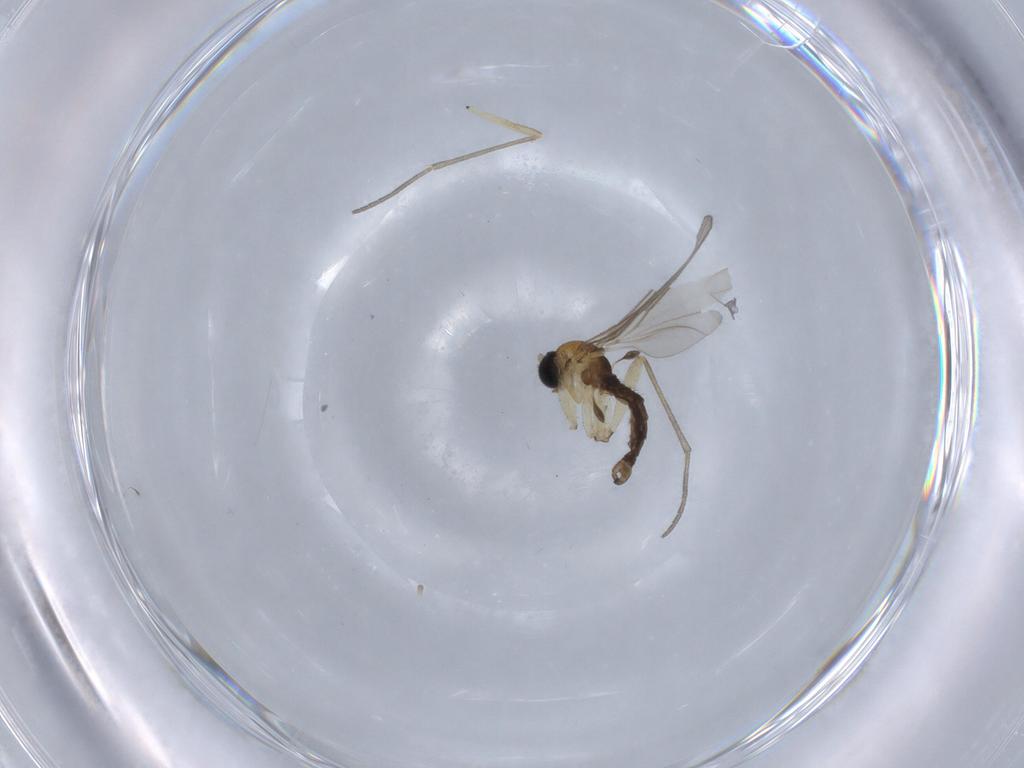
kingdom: Animalia
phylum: Arthropoda
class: Insecta
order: Diptera
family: Sciaridae
